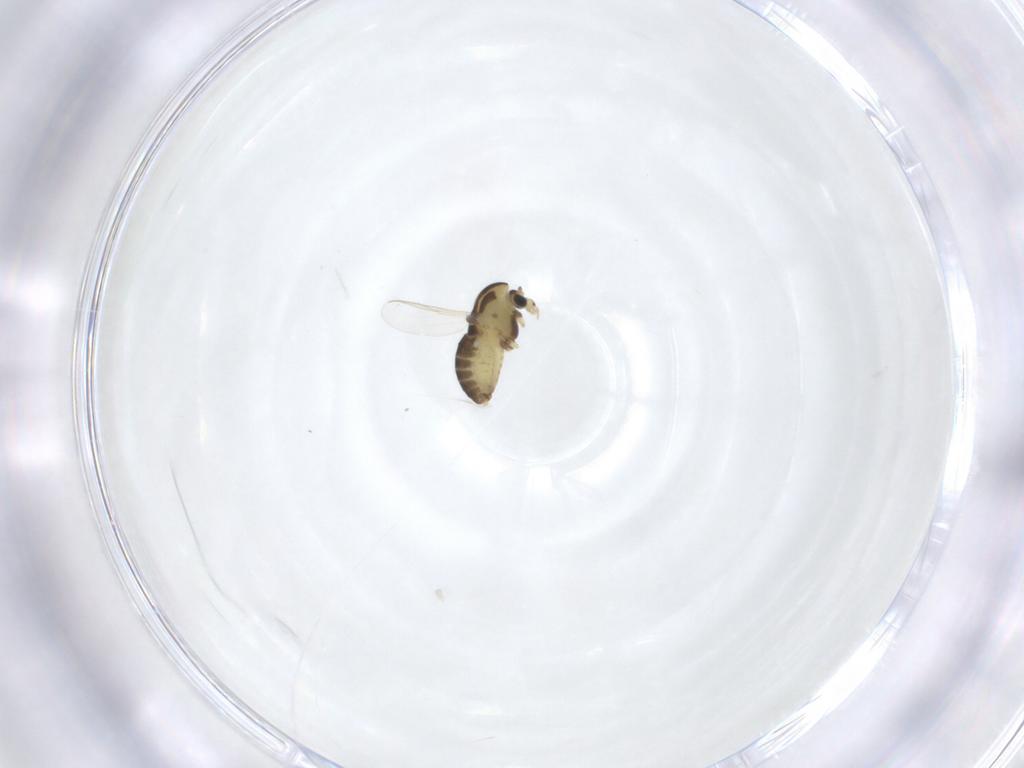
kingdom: Animalia
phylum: Arthropoda
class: Insecta
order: Diptera
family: Chironomidae
